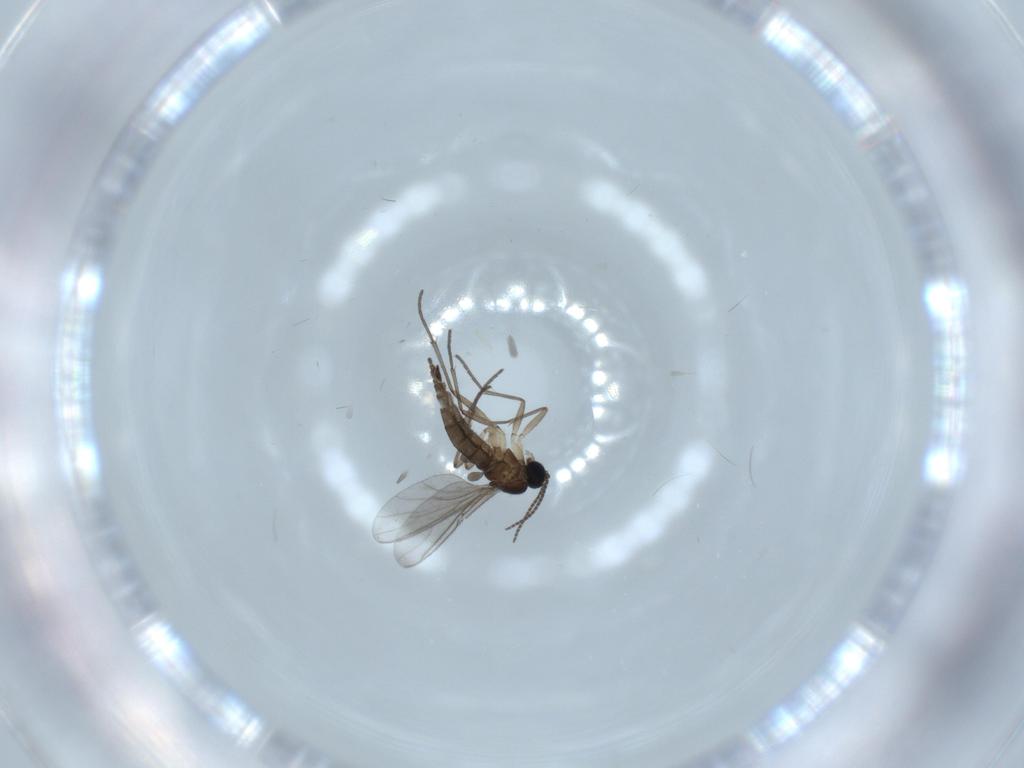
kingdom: Animalia
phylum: Arthropoda
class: Insecta
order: Diptera
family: Sciaridae
